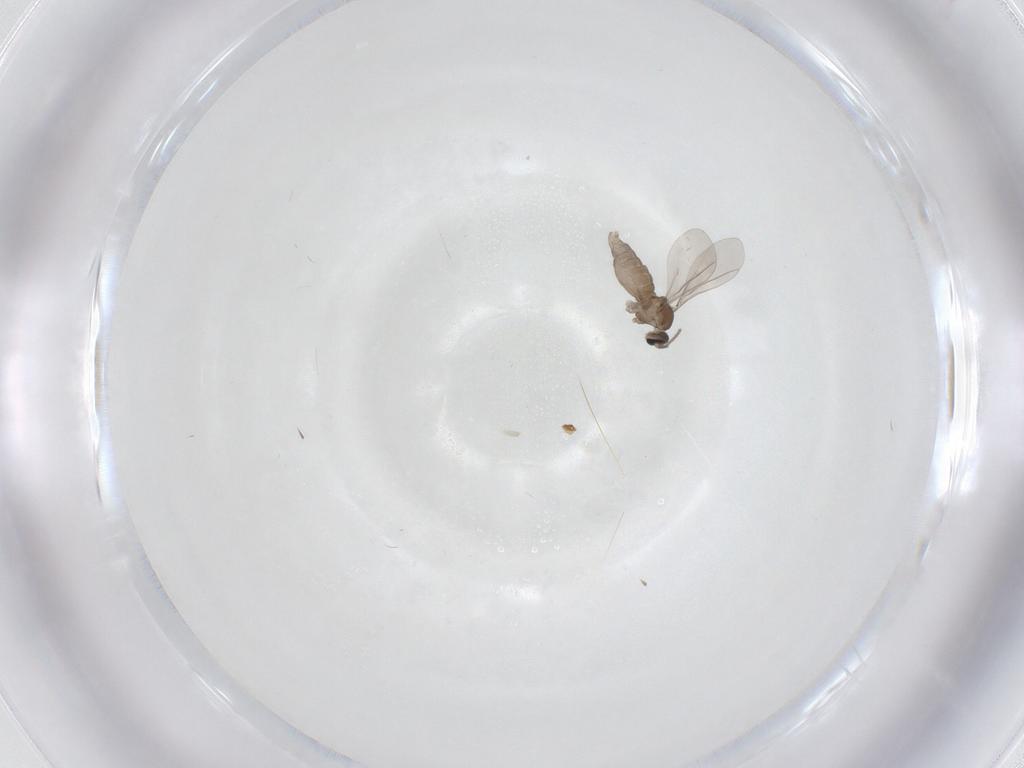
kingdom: Animalia
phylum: Arthropoda
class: Insecta
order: Diptera
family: Cecidomyiidae
